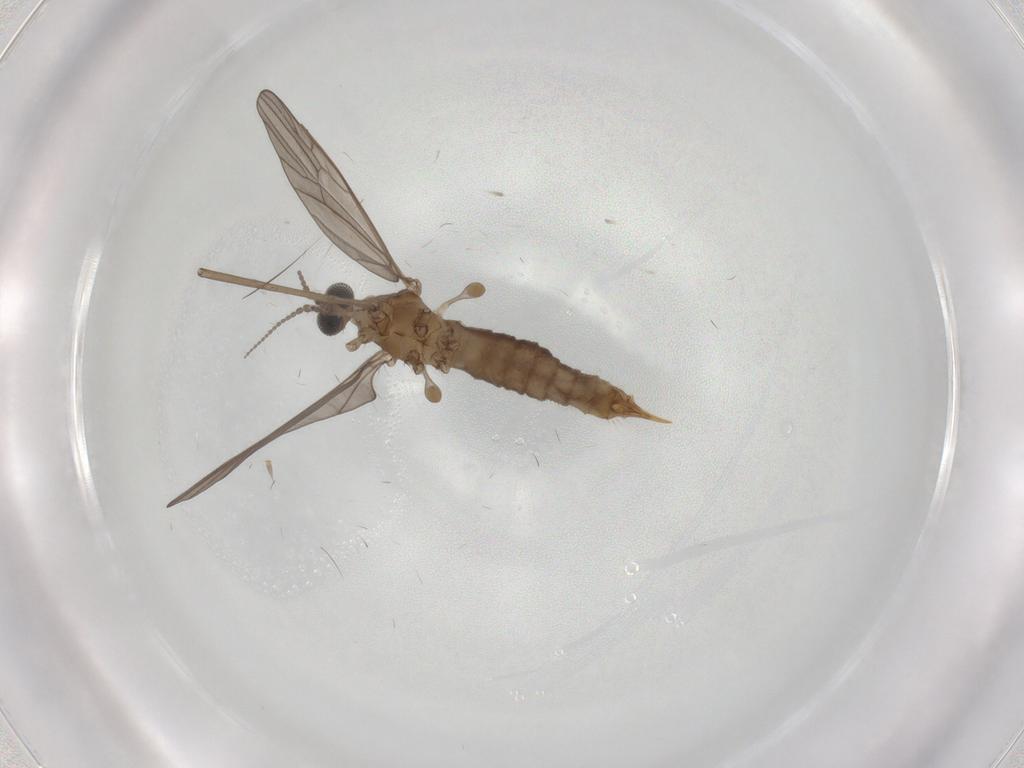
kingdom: Animalia
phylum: Arthropoda
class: Insecta
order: Diptera
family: Limoniidae
